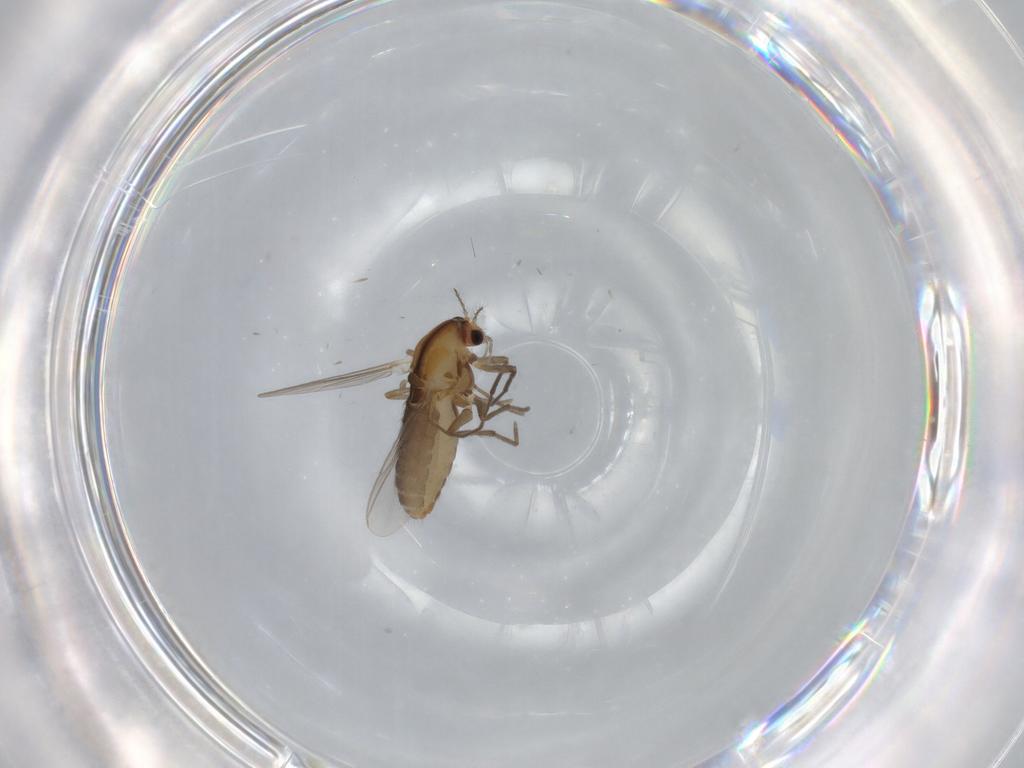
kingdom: Animalia
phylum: Arthropoda
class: Insecta
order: Diptera
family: Chironomidae
